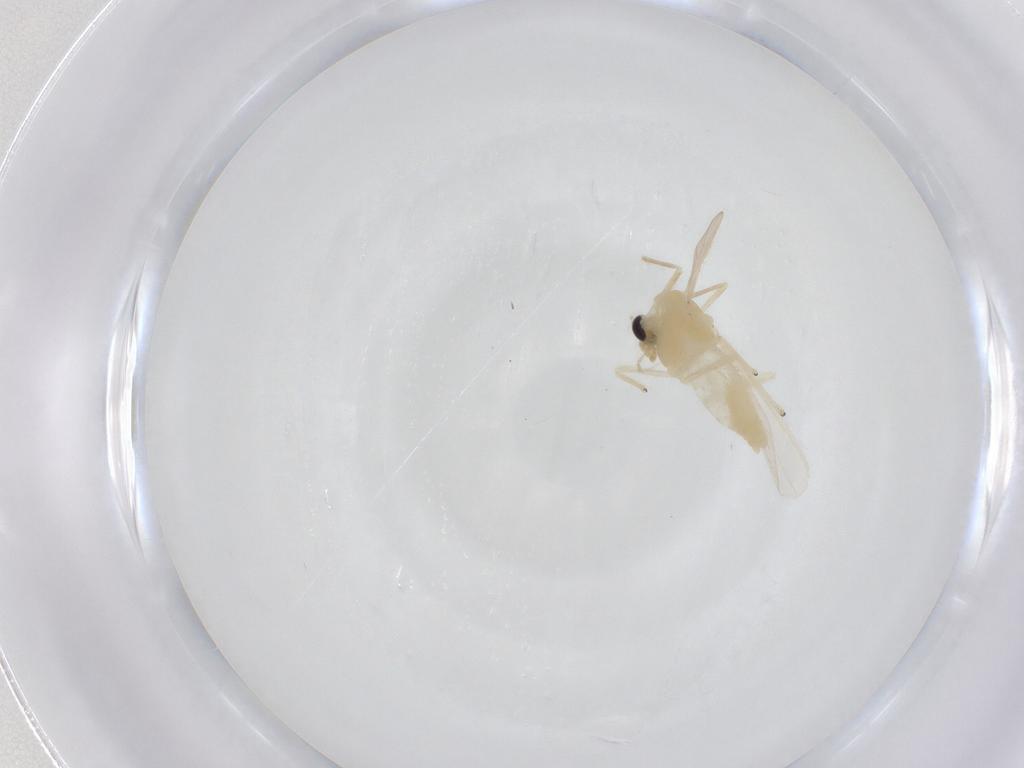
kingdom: Animalia
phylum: Arthropoda
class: Insecta
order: Diptera
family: Chironomidae
